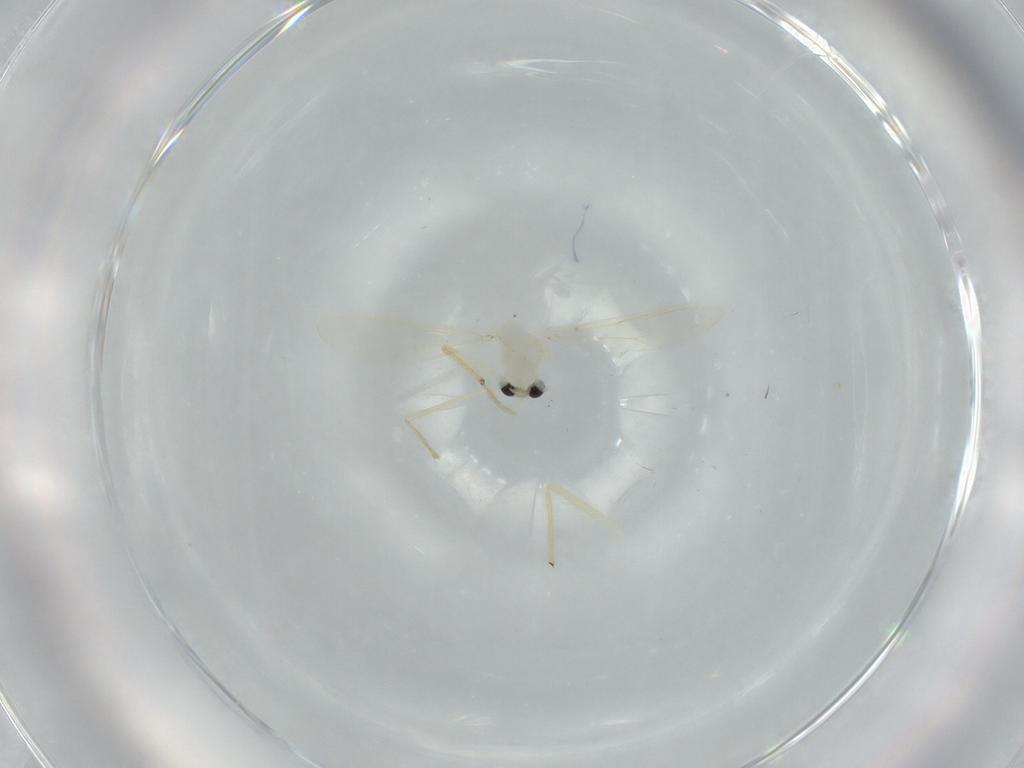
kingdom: Animalia
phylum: Arthropoda
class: Insecta
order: Diptera
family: Chironomidae
